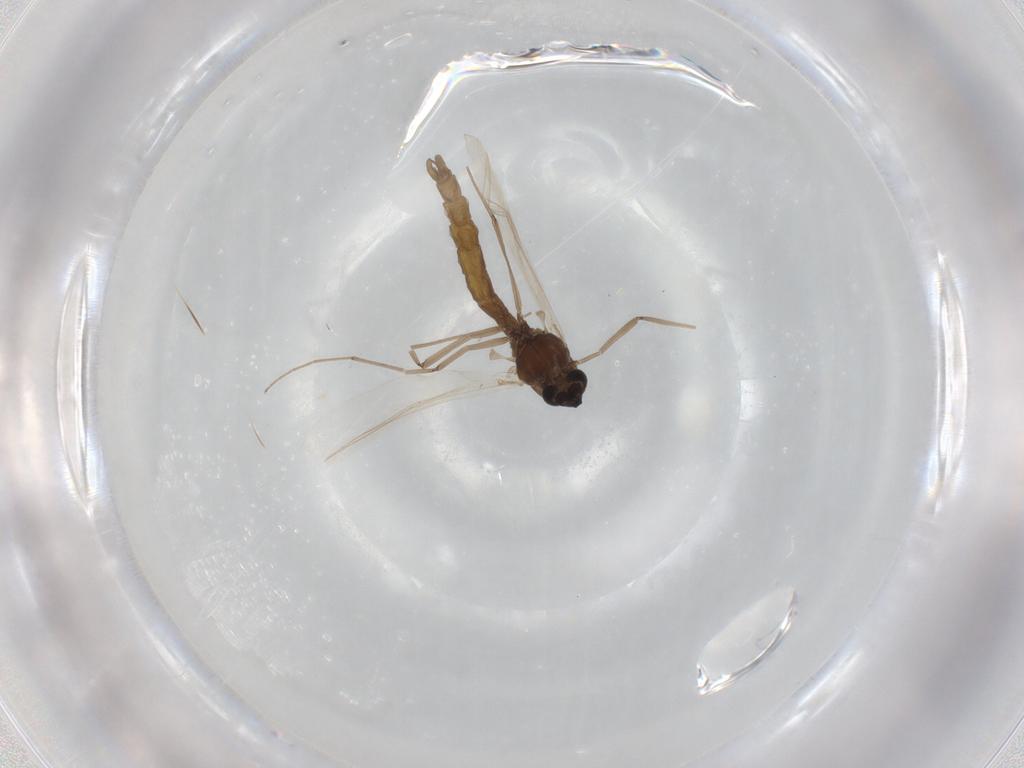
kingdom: Animalia
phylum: Arthropoda
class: Insecta
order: Diptera
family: Chironomidae
